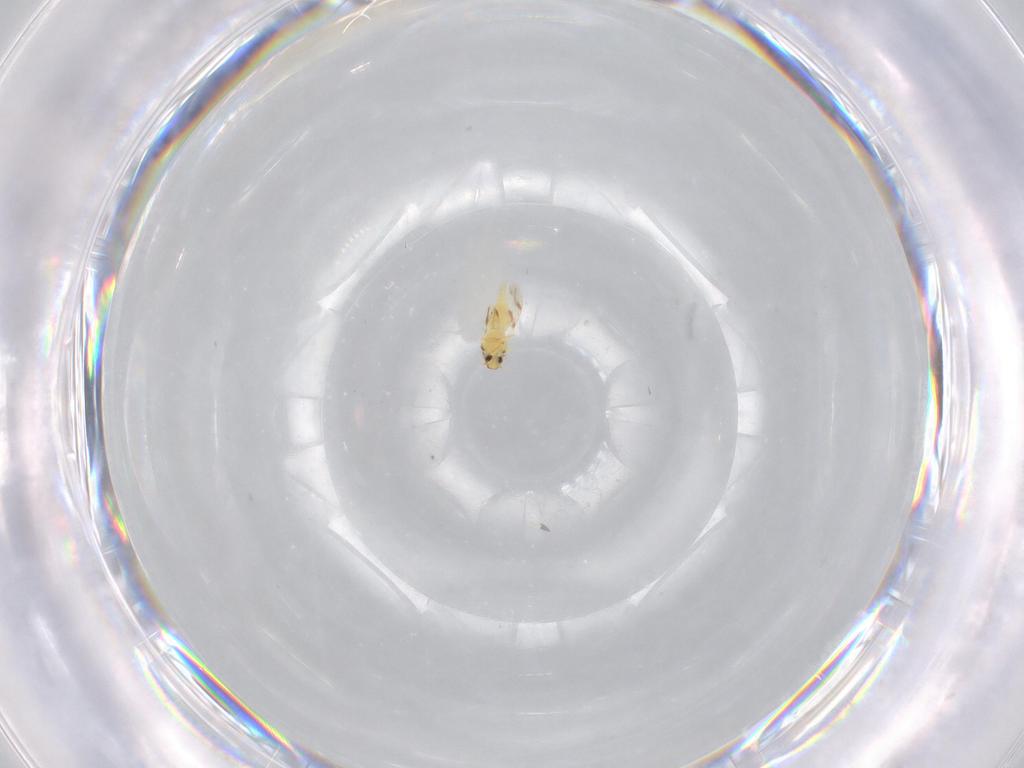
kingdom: Animalia
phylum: Arthropoda
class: Insecta
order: Hemiptera
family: Aleyrodidae
